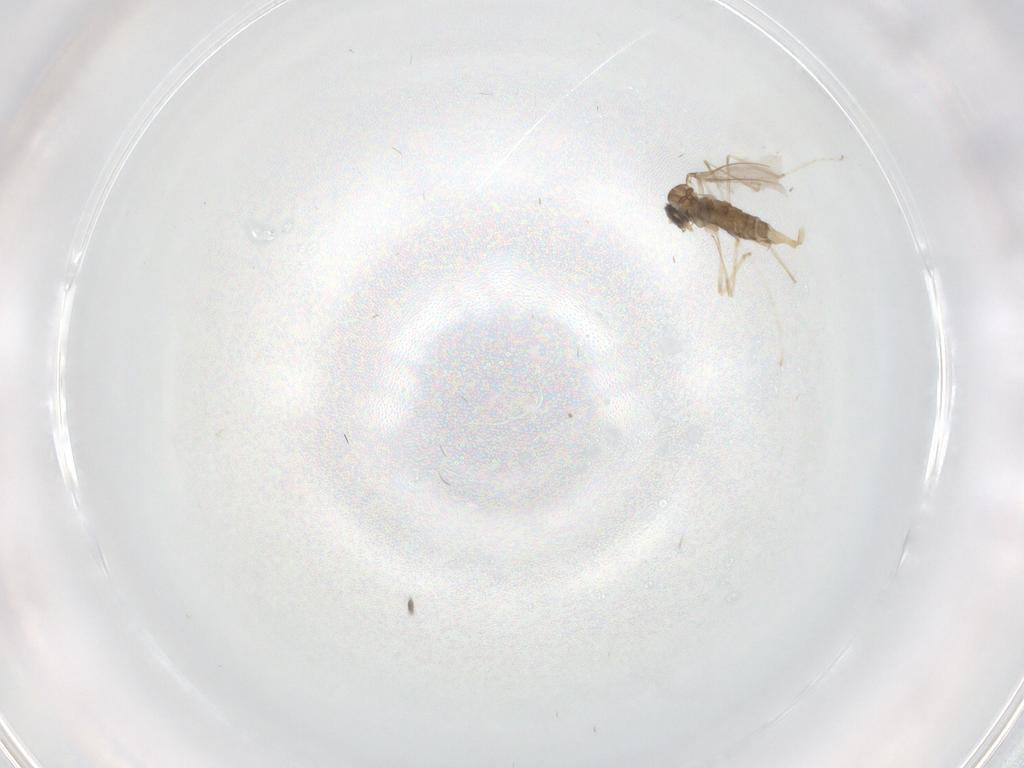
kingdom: Animalia
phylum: Arthropoda
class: Insecta
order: Diptera
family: Cecidomyiidae
